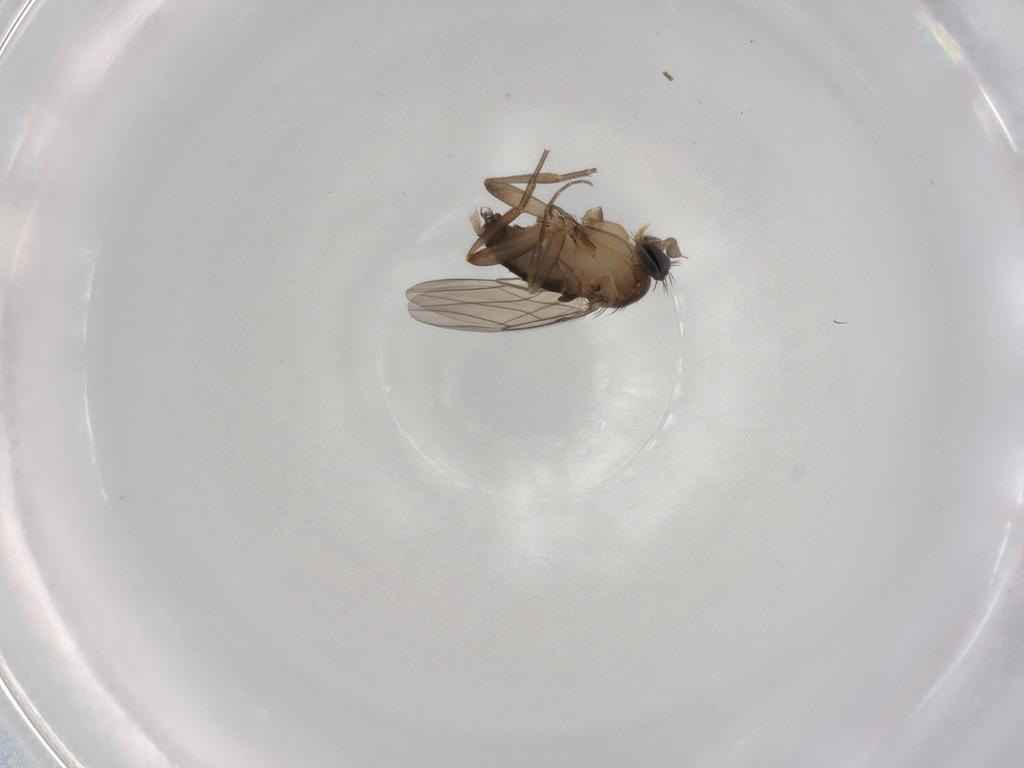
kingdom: Animalia
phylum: Arthropoda
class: Insecta
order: Diptera
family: Phoridae
